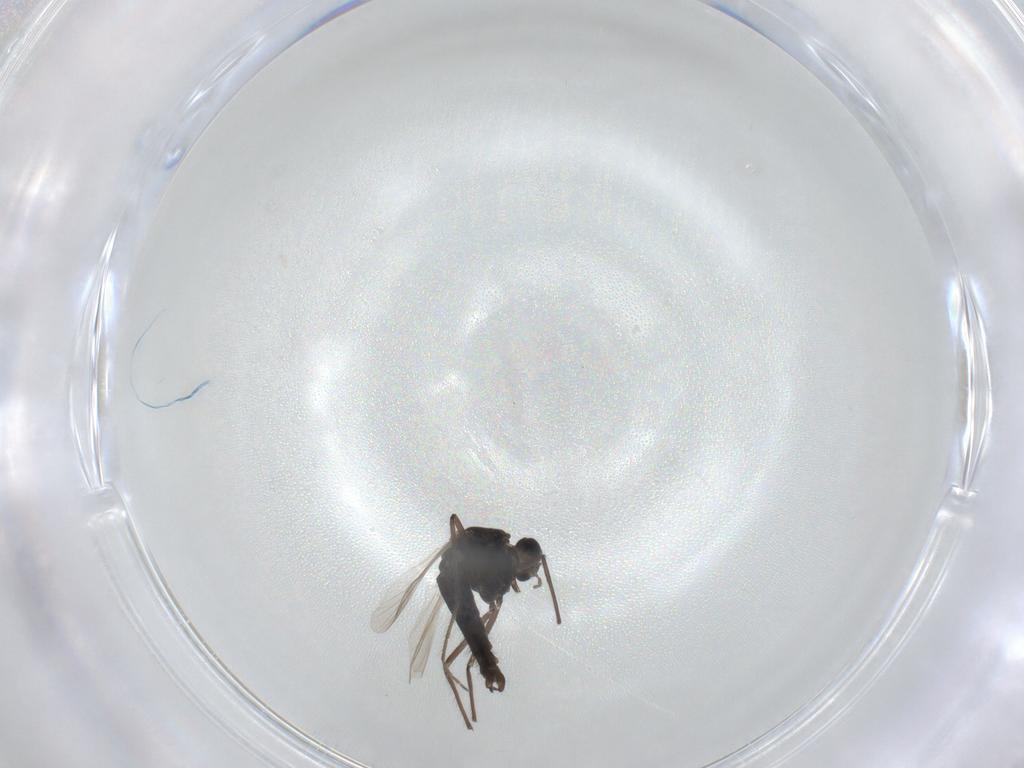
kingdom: Animalia
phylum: Arthropoda
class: Insecta
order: Diptera
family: Chironomidae
